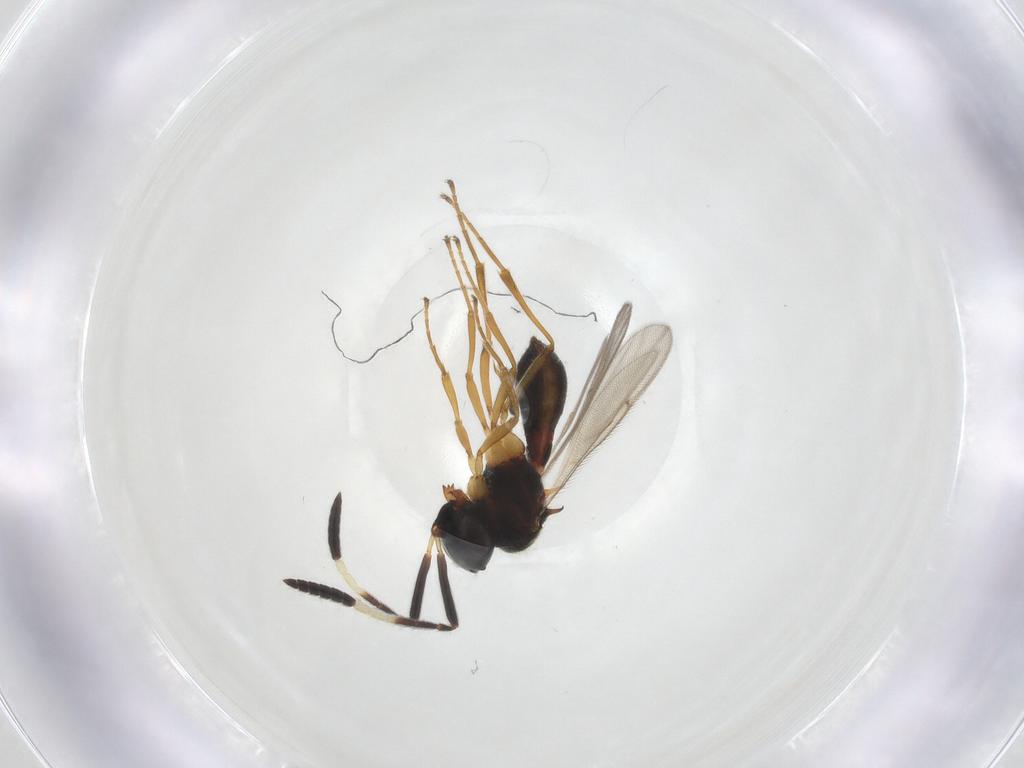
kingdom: Animalia
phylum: Arthropoda
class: Insecta
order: Hymenoptera
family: Scelionidae
